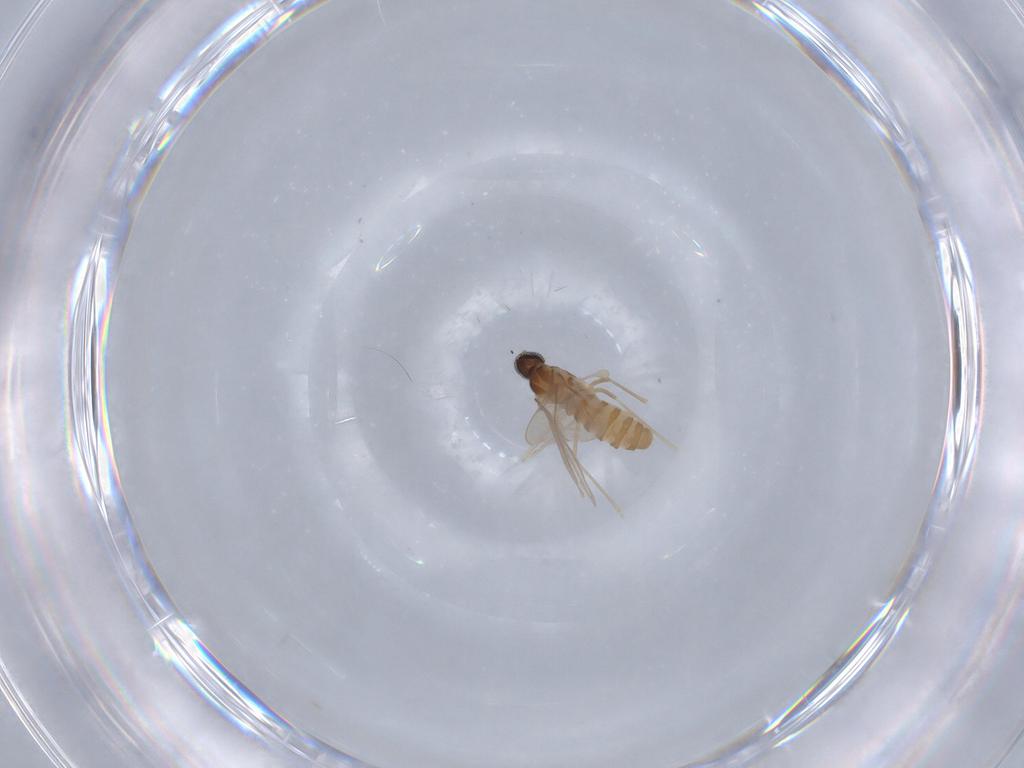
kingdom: Animalia
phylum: Arthropoda
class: Insecta
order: Diptera
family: Cecidomyiidae
